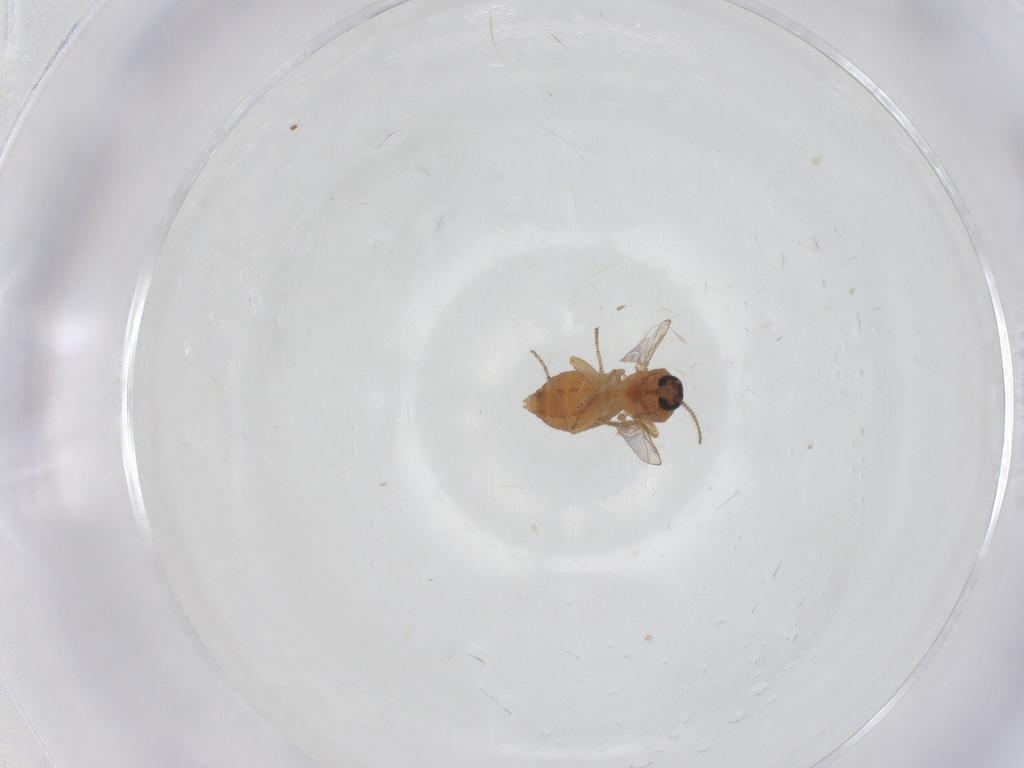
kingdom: Animalia
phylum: Arthropoda
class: Insecta
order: Diptera
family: Ceratopogonidae
